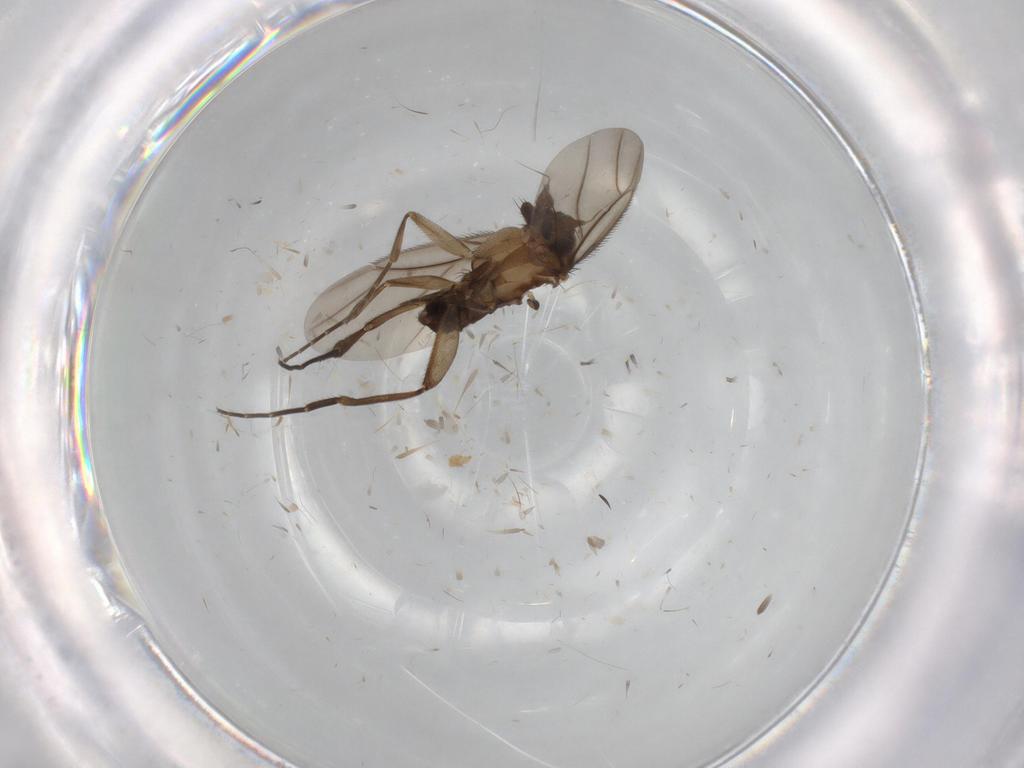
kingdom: Animalia
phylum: Arthropoda
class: Insecta
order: Diptera
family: Phoridae
